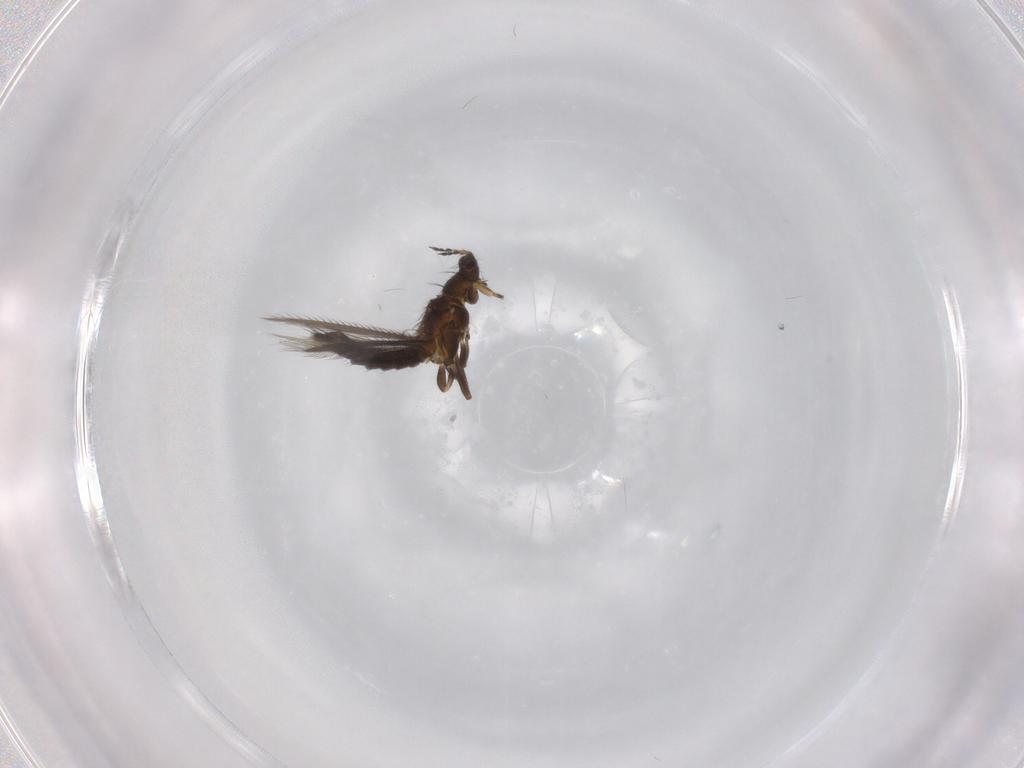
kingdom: Animalia
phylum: Arthropoda
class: Insecta
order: Thysanoptera
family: Thripidae
